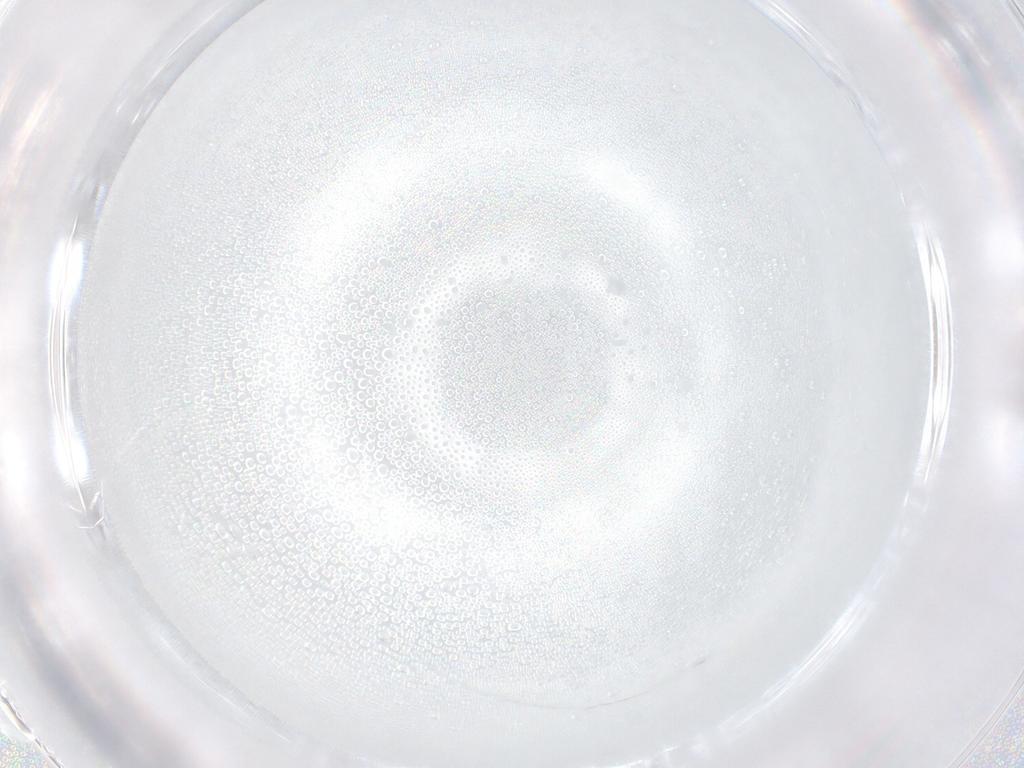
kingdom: Animalia
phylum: Arthropoda
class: Insecta
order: Diptera
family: Cecidomyiidae
